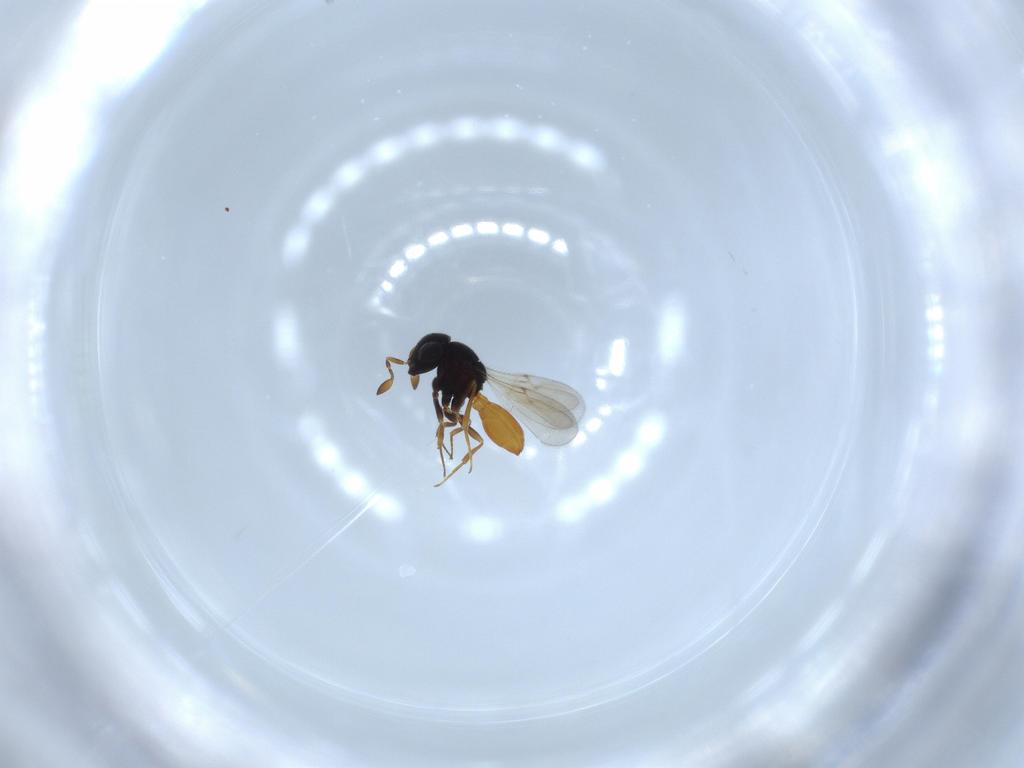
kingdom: Animalia
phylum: Arthropoda
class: Insecta
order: Hymenoptera
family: Scelionidae
